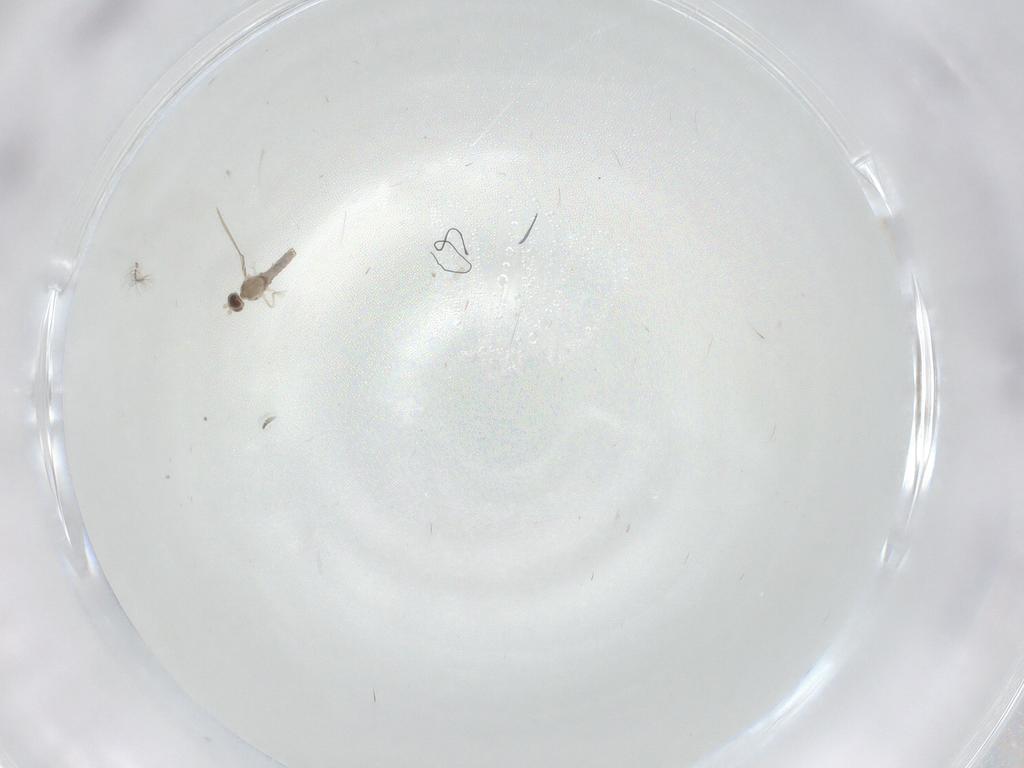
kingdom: Animalia
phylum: Arthropoda
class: Insecta
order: Diptera
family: Cecidomyiidae
